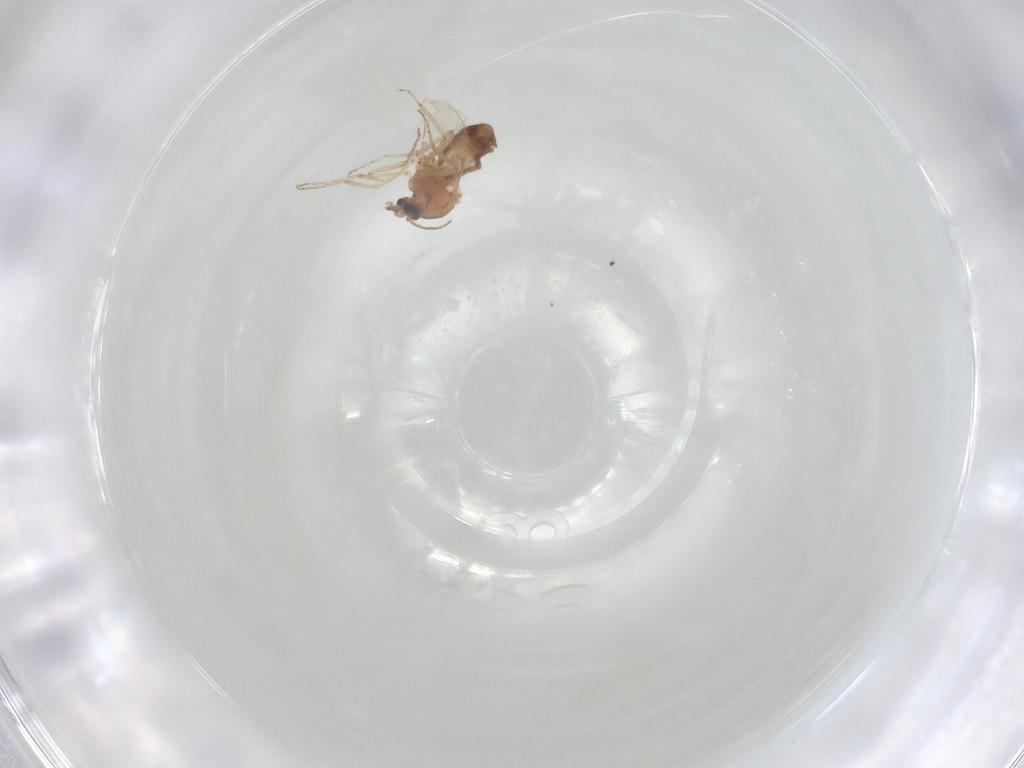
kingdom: Animalia
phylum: Arthropoda
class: Insecta
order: Diptera
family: Ceratopogonidae
